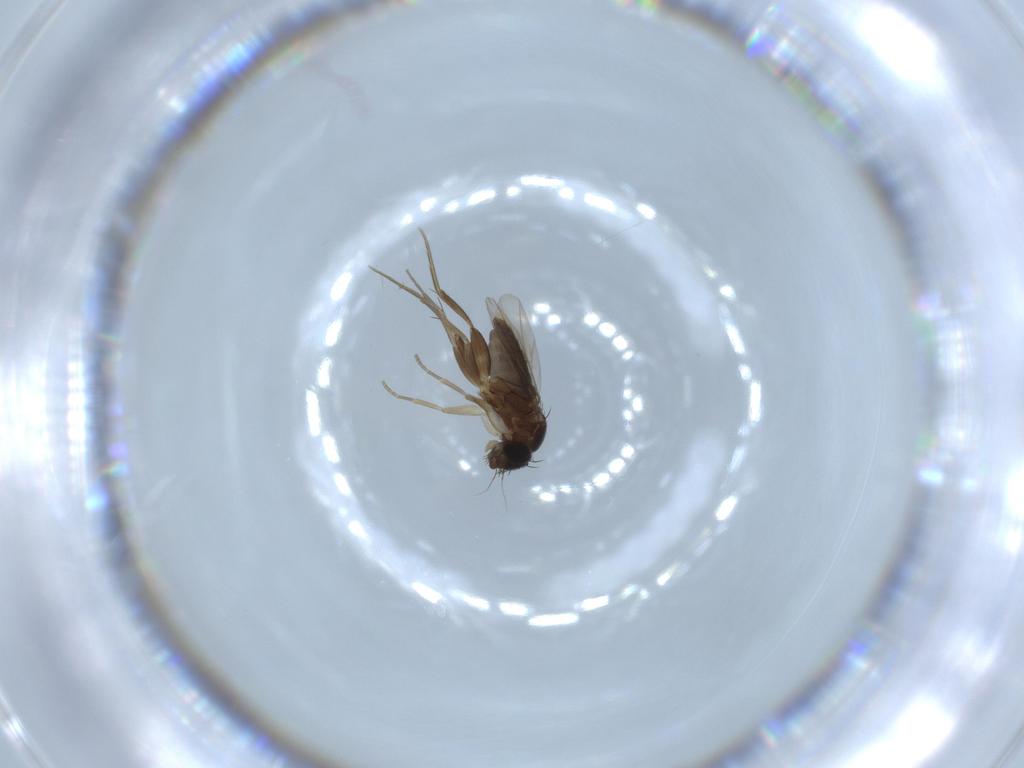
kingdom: Animalia
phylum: Arthropoda
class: Insecta
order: Diptera
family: Phoridae
